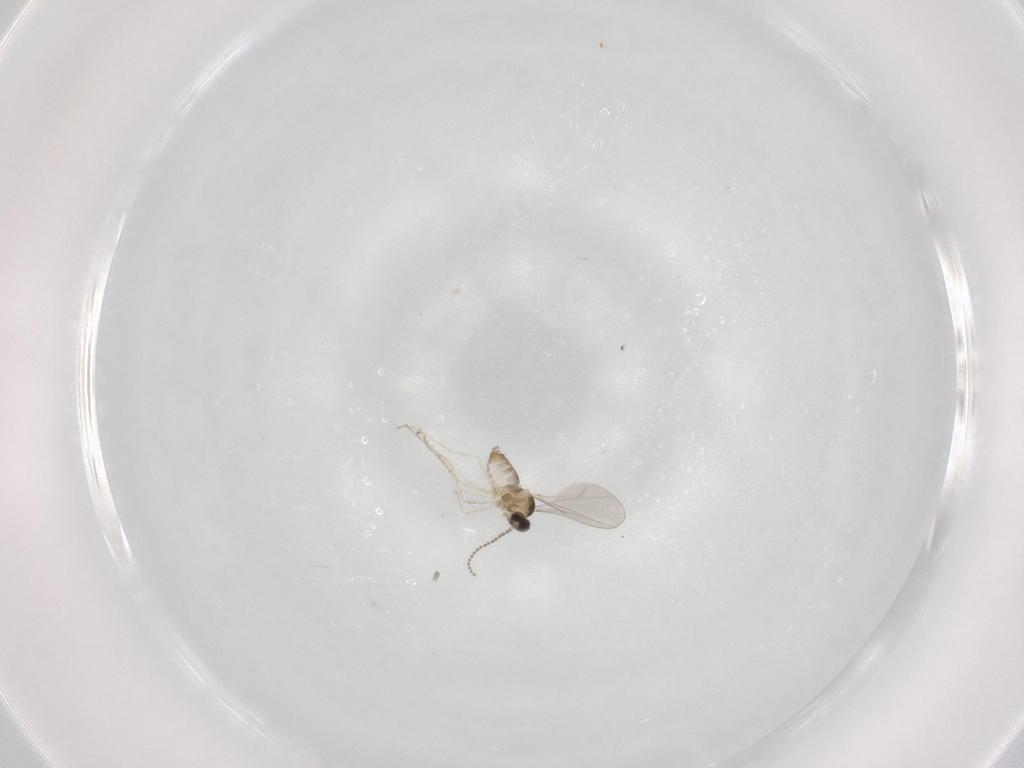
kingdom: Animalia
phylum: Arthropoda
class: Insecta
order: Diptera
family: Cecidomyiidae
